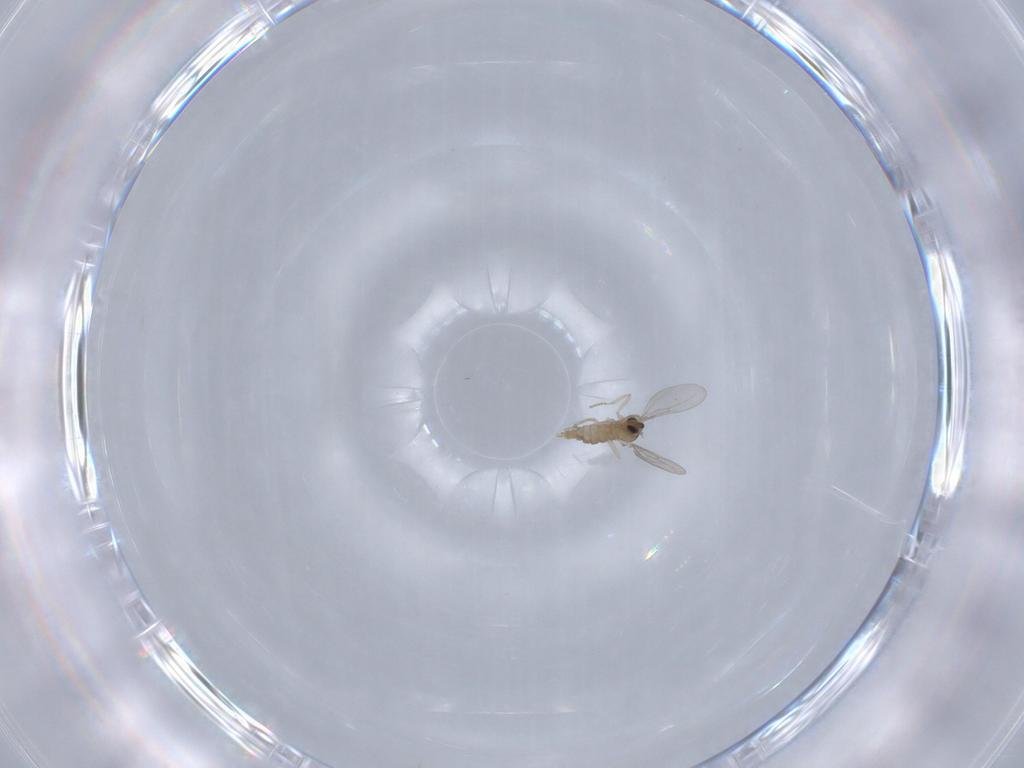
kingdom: Animalia
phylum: Arthropoda
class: Insecta
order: Diptera
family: Cecidomyiidae
